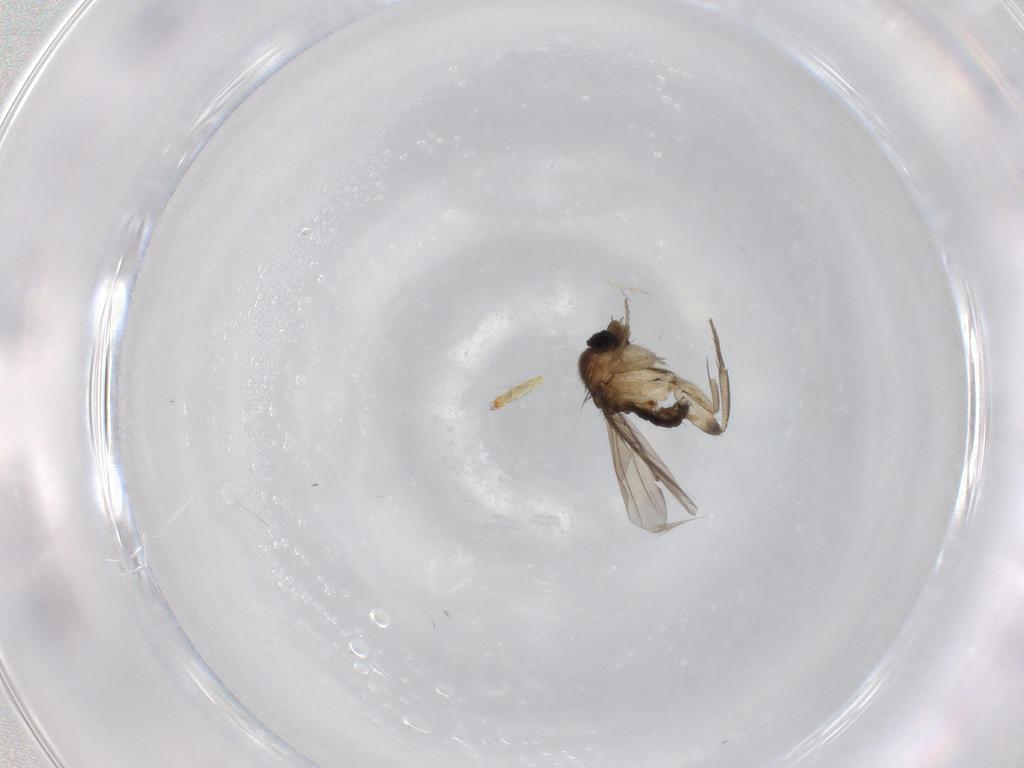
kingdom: Animalia
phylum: Arthropoda
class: Insecta
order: Diptera
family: Phoridae
